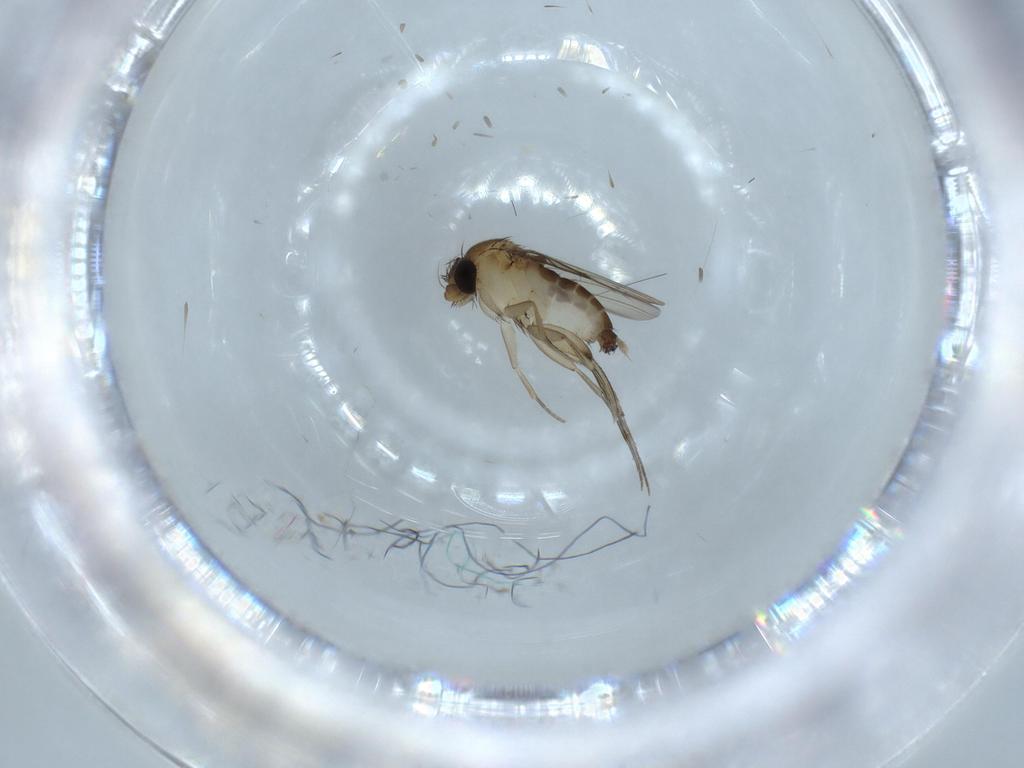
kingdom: Animalia
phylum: Arthropoda
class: Insecta
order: Diptera
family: Phoridae
